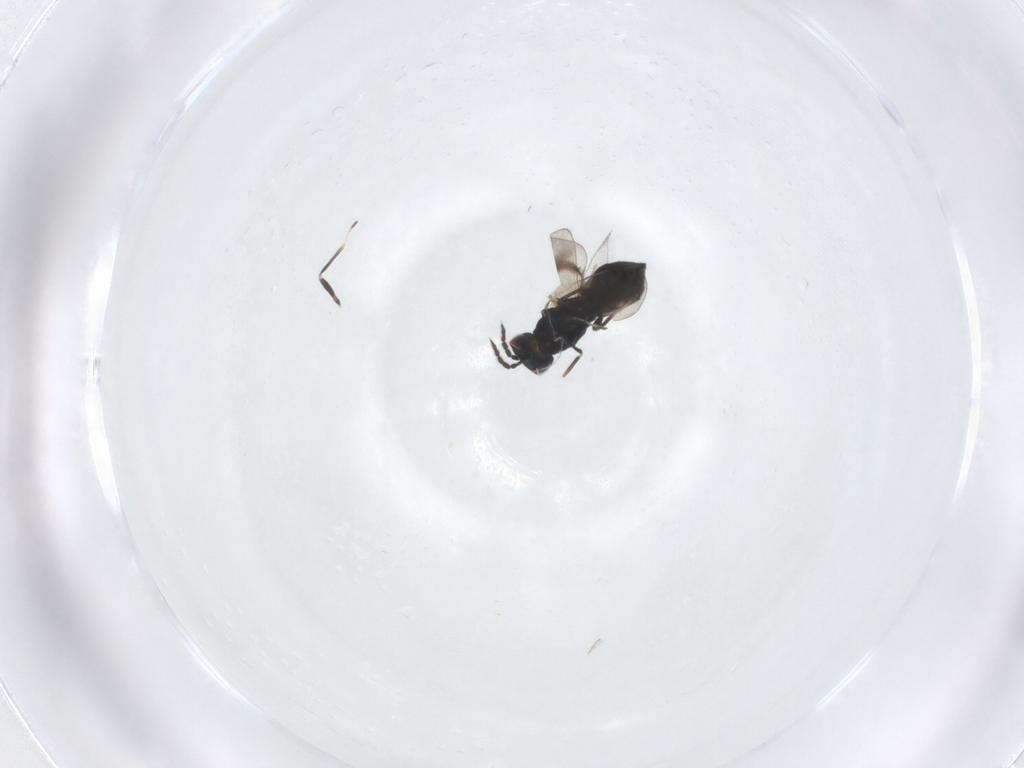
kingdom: Animalia
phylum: Arthropoda
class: Insecta
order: Hymenoptera
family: Eulophidae
